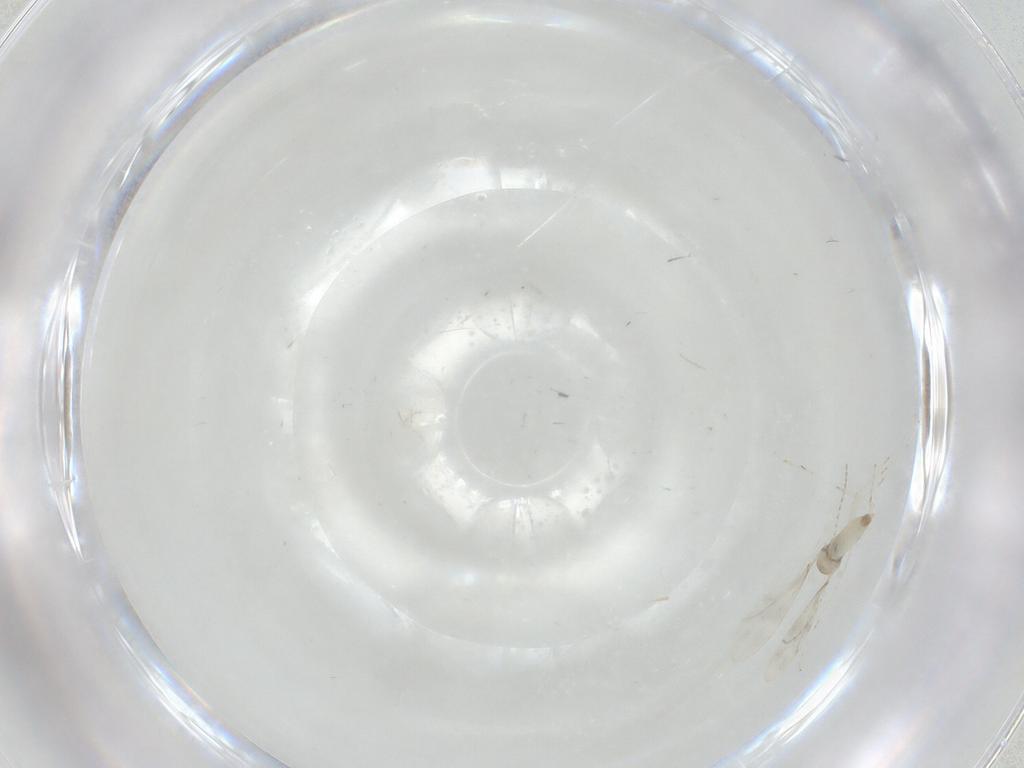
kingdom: Animalia
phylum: Arthropoda
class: Insecta
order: Diptera
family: Cecidomyiidae
